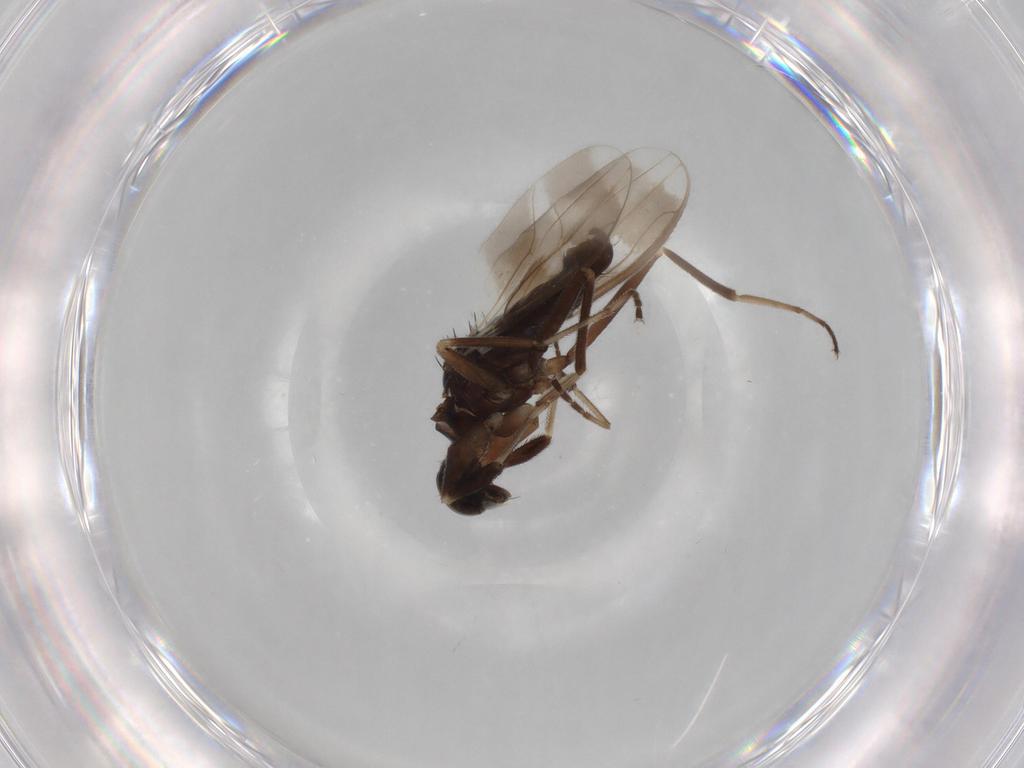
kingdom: Animalia
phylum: Arthropoda
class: Insecta
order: Diptera
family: Hybotidae
